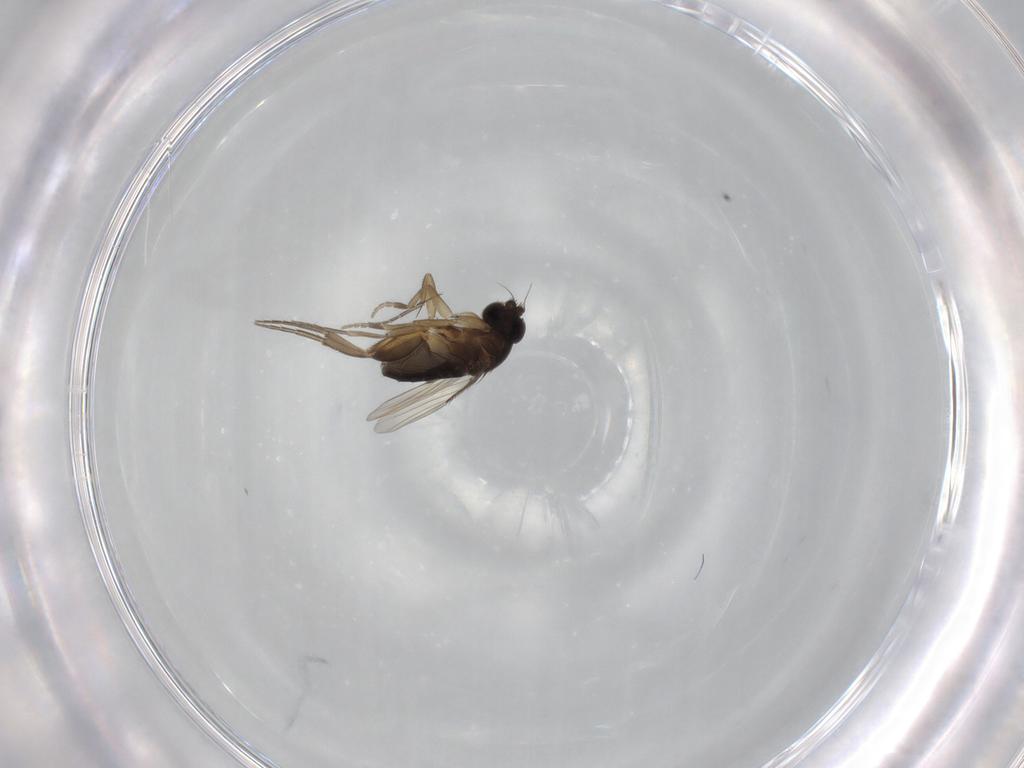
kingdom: Animalia
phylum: Arthropoda
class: Insecta
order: Diptera
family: Phoridae
